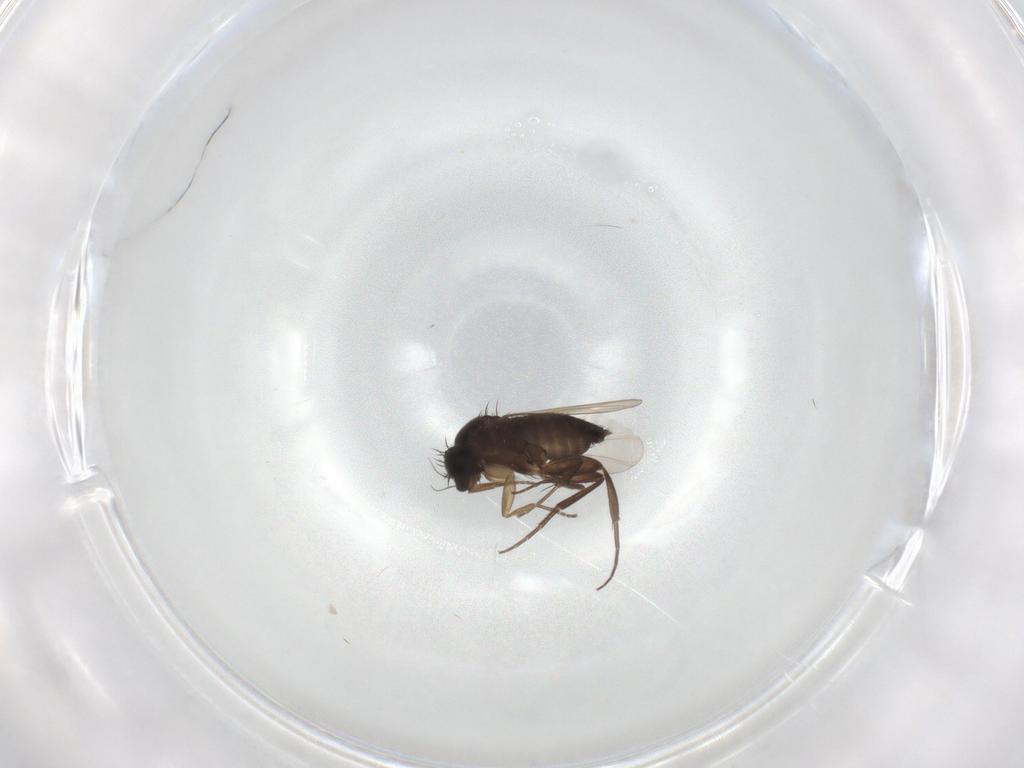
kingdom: Animalia
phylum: Arthropoda
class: Insecta
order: Diptera
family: Phoridae
